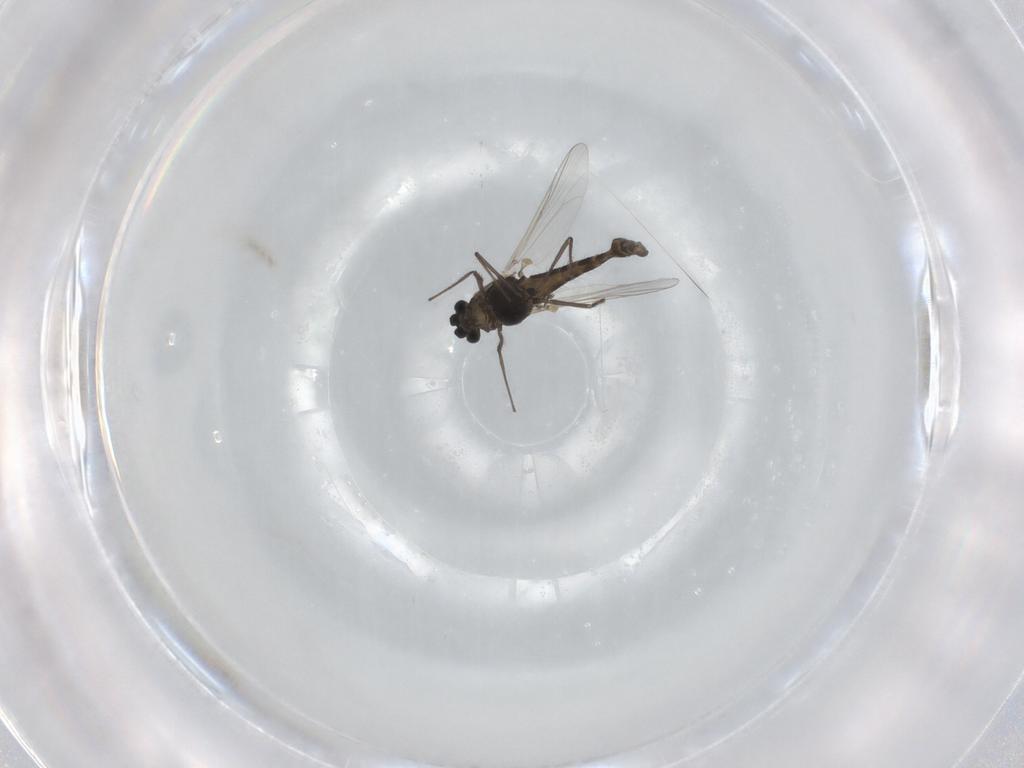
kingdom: Animalia
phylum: Arthropoda
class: Insecta
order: Diptera
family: Chironomidae
